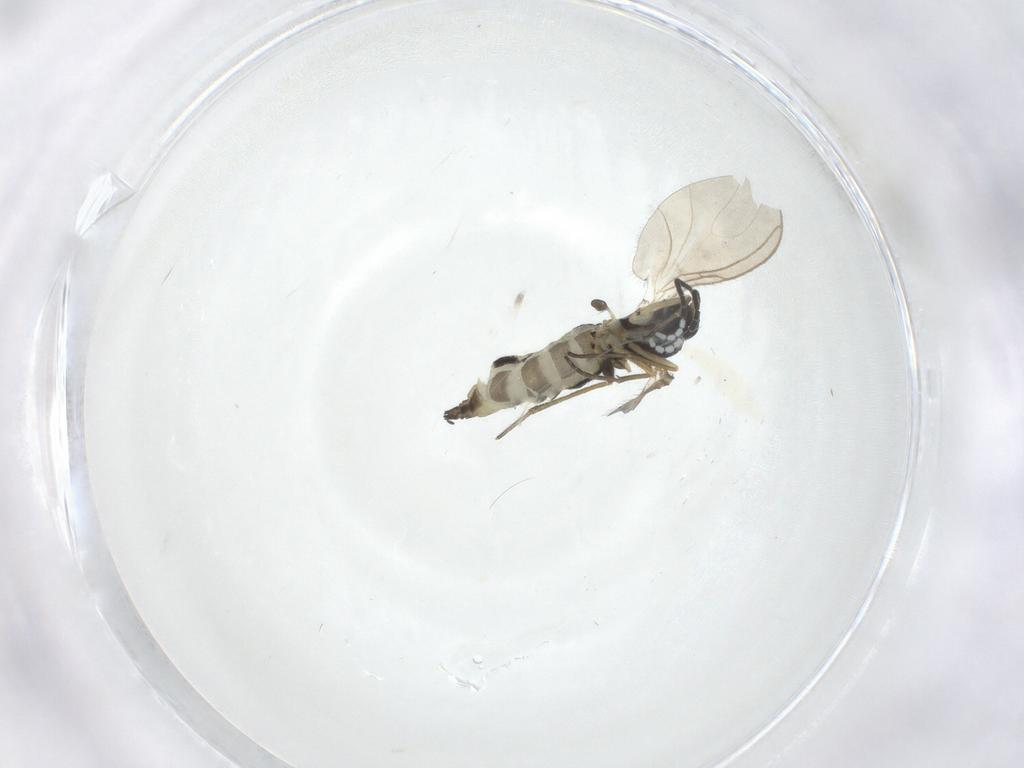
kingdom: Animalia
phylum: Arthropoda
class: Insecta
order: Diptera
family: Sciaridae
